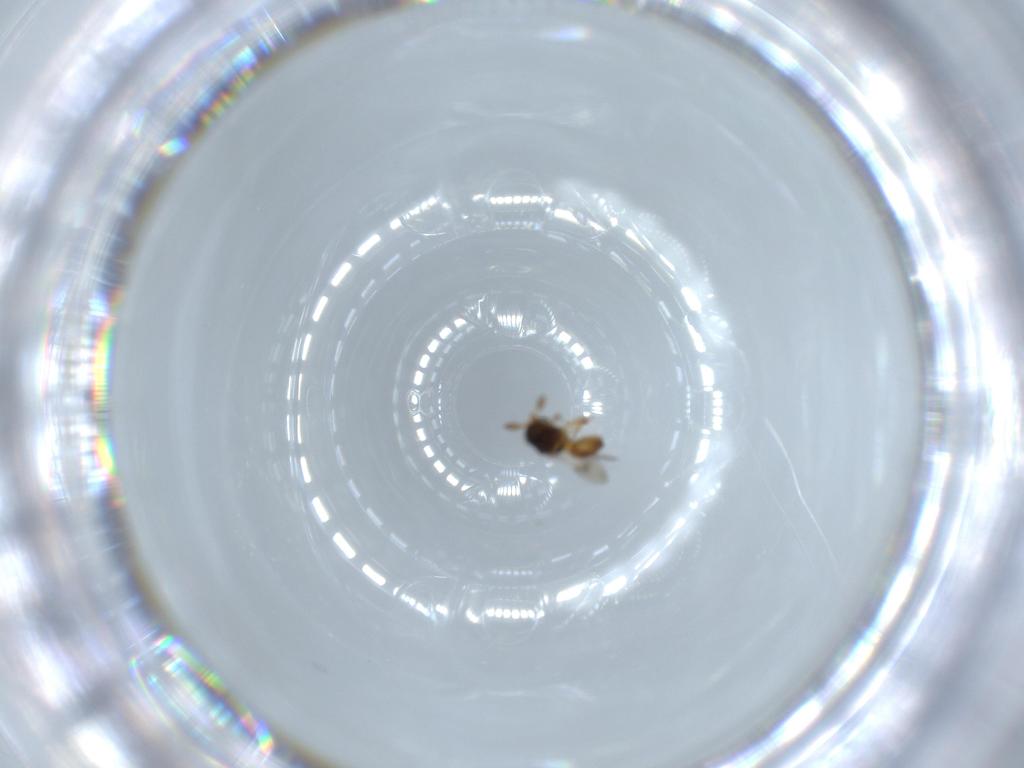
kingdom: Animalia
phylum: Arthropoda
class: Insecta
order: Hymenoptera
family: Scelionidae
